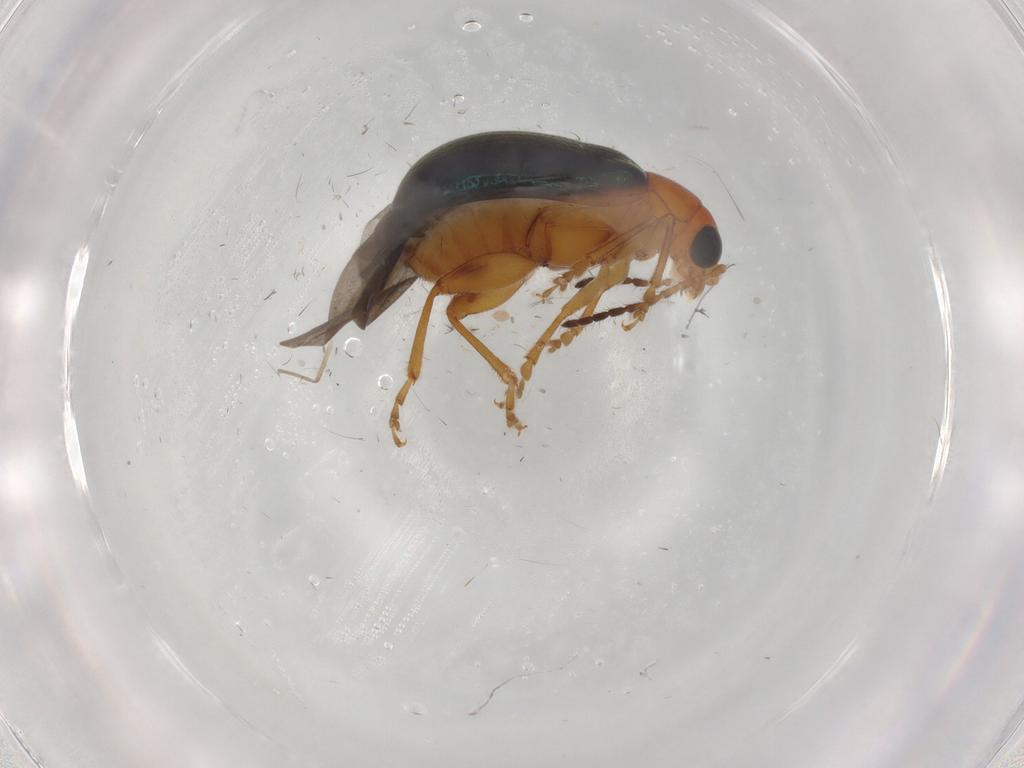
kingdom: Animalia
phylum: Arthropoda
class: Insecta
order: Coleoptera
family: Chrysomelidae
